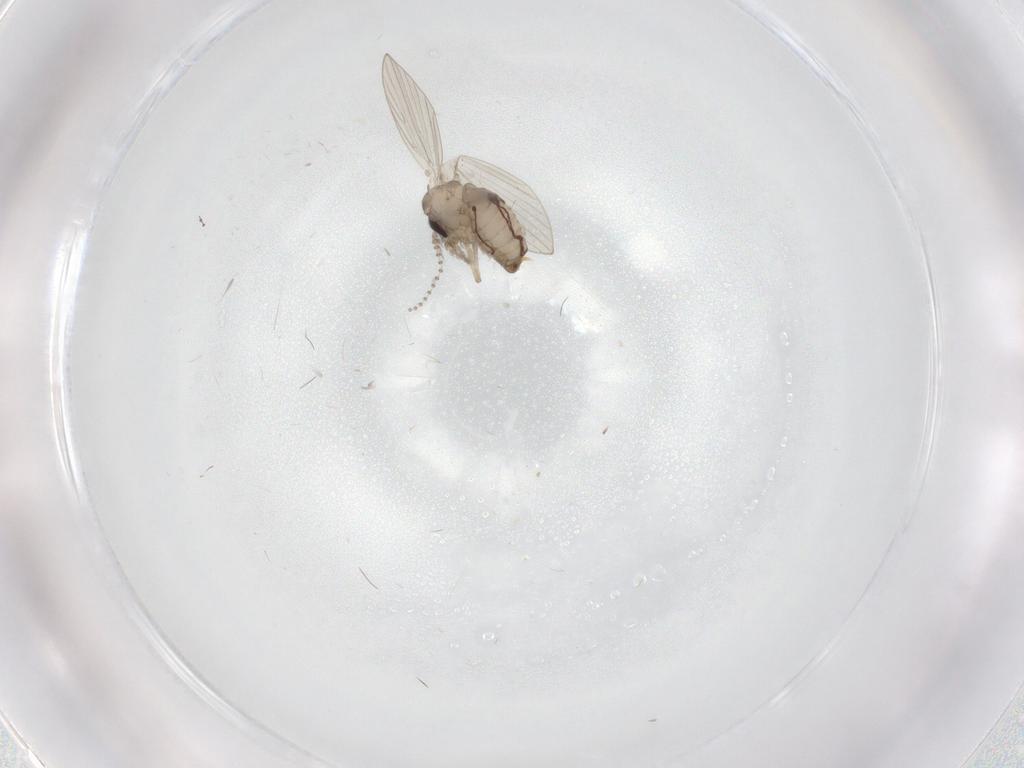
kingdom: Animalia
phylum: Arthropoda
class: Insecta
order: Diptera
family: Psychodidae
